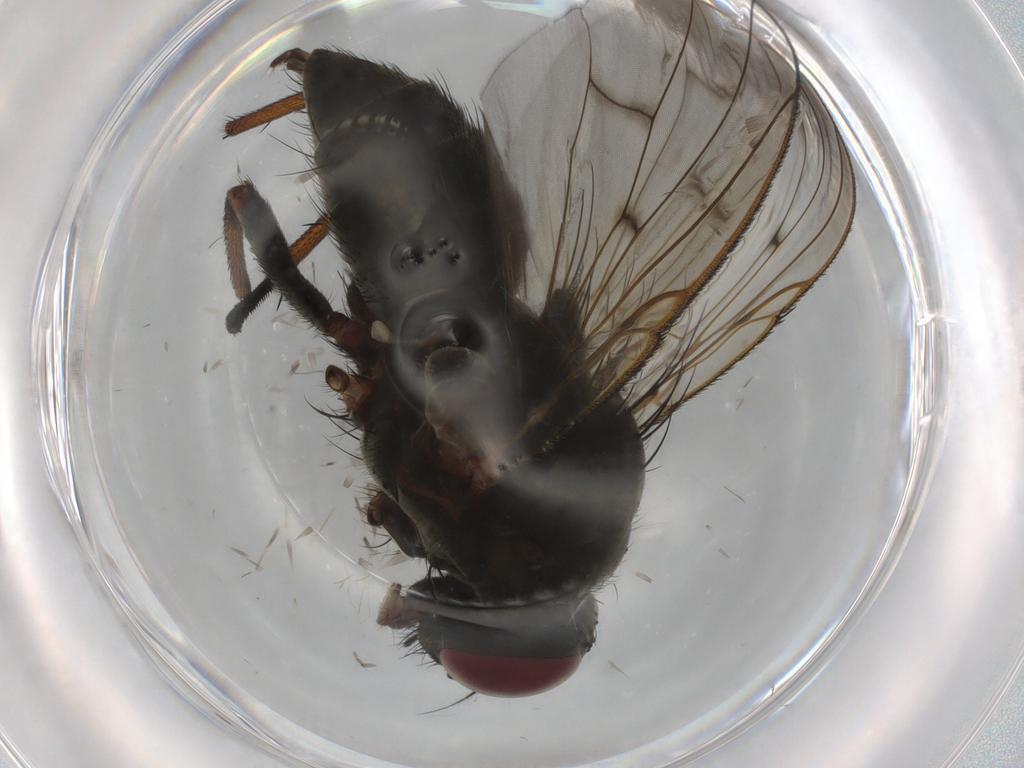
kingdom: Animalia
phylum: Arthropoda
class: Insecta
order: Diptera
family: Muscidae
